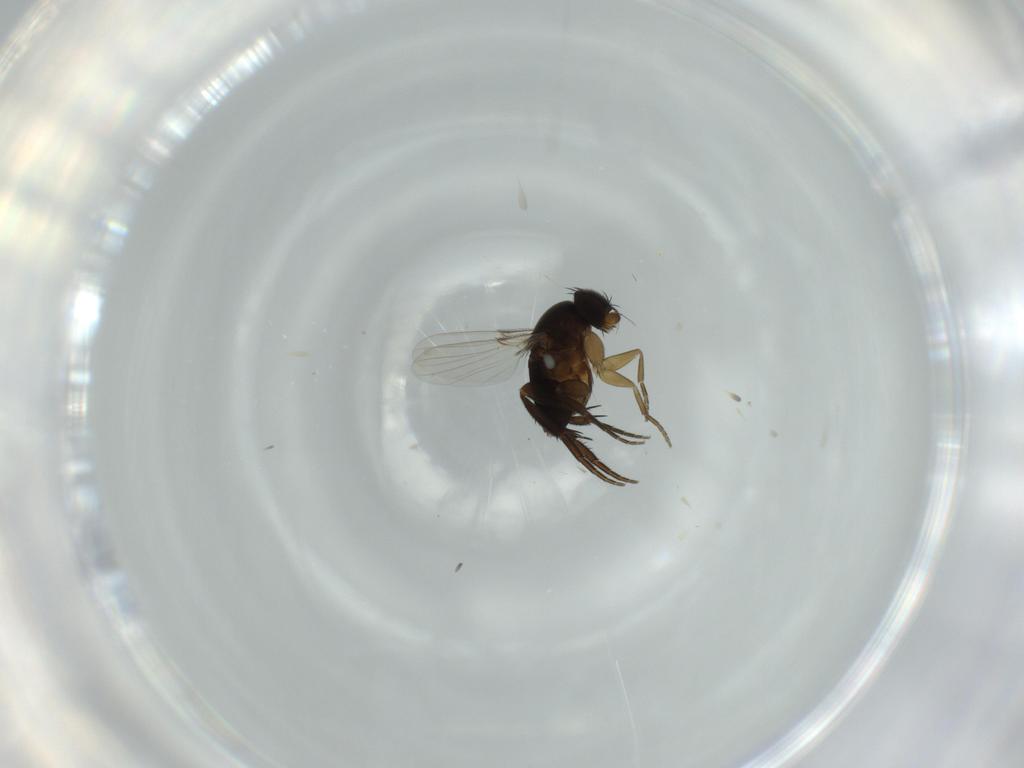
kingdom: Animalia
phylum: Arthropoda
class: Insecta
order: Diptera
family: Phoridae
